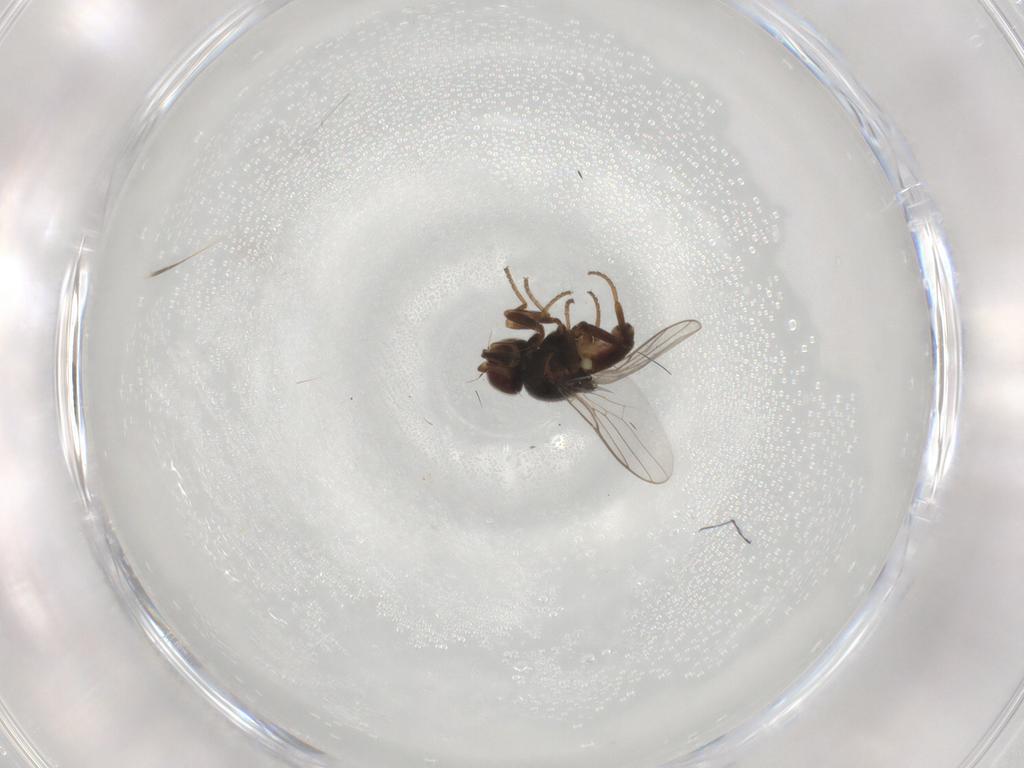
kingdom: Animalia
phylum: Arthropoda
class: Insecta
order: Diptera
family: Chloropidae
